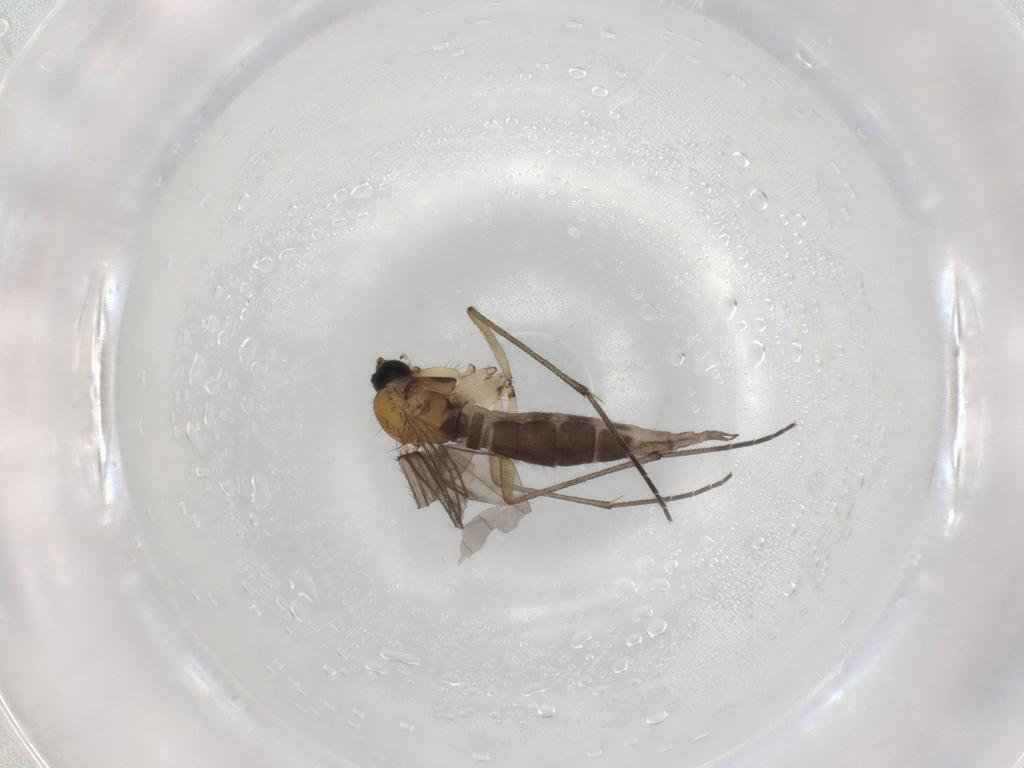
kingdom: Animalia
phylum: Arthropoda
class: Insecta
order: Diptera
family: Sciaridae
